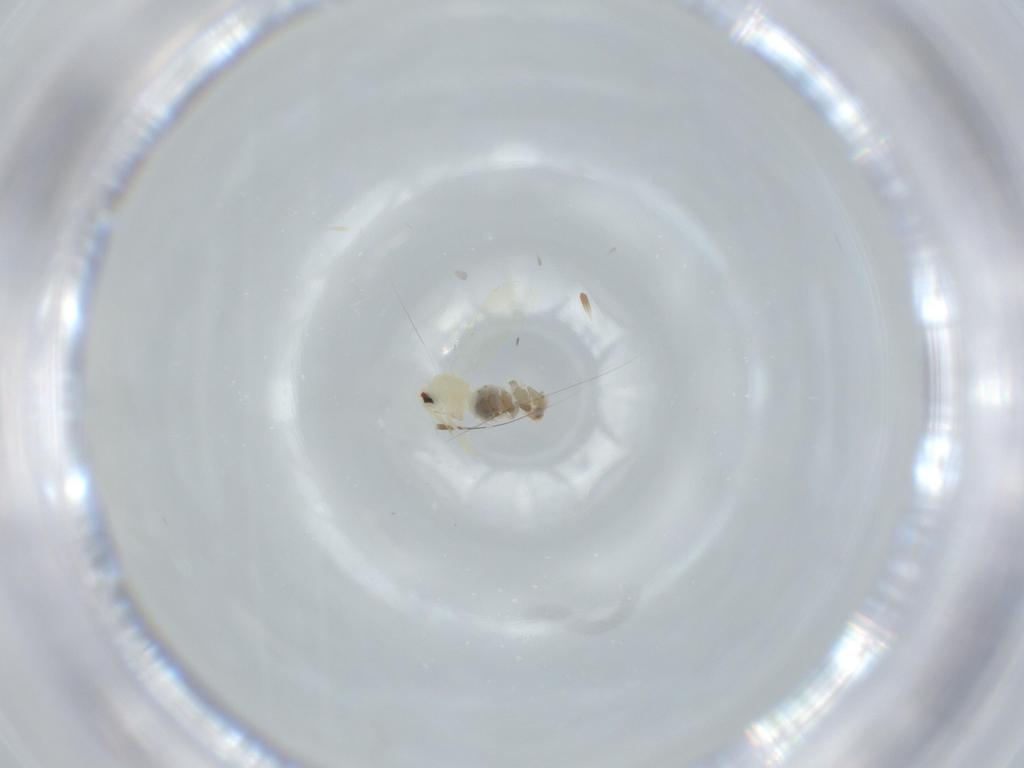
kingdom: Animalia
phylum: Arthropoda
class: Insecta
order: Coleoptera
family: Coccinellidae
